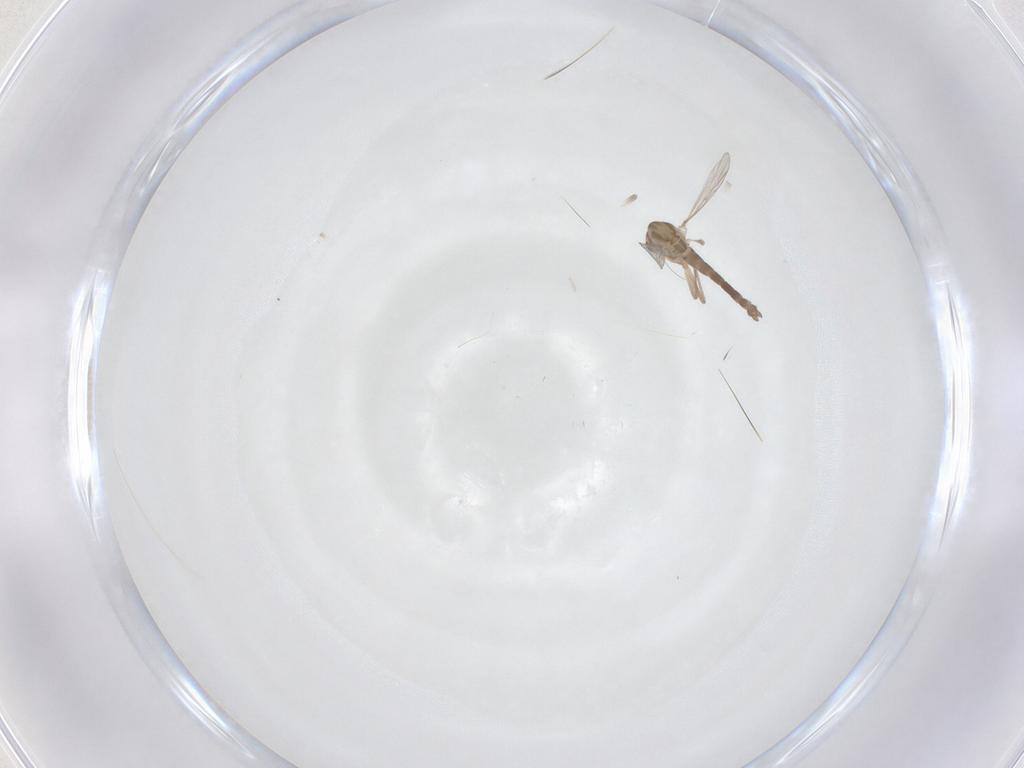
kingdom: Animalia
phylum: Arthropoda
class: Insecta
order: Diptera
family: Chironomidae
